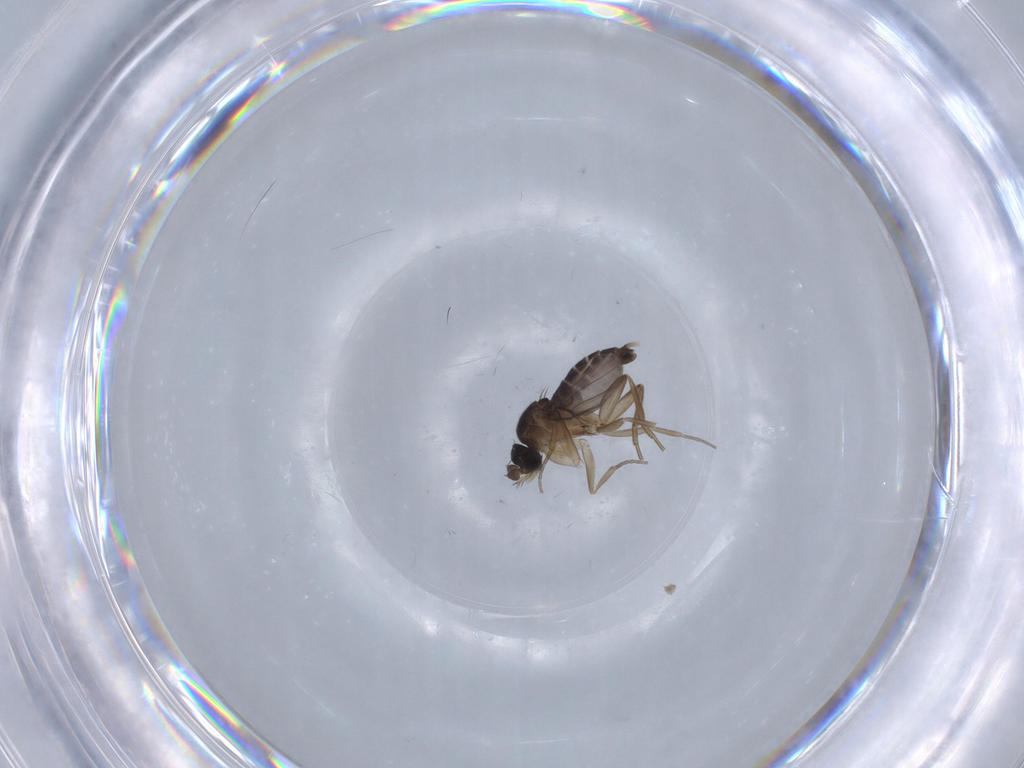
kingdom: Animalia
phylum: Arthropoda
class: Insecta
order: Diptera
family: Phoridae
